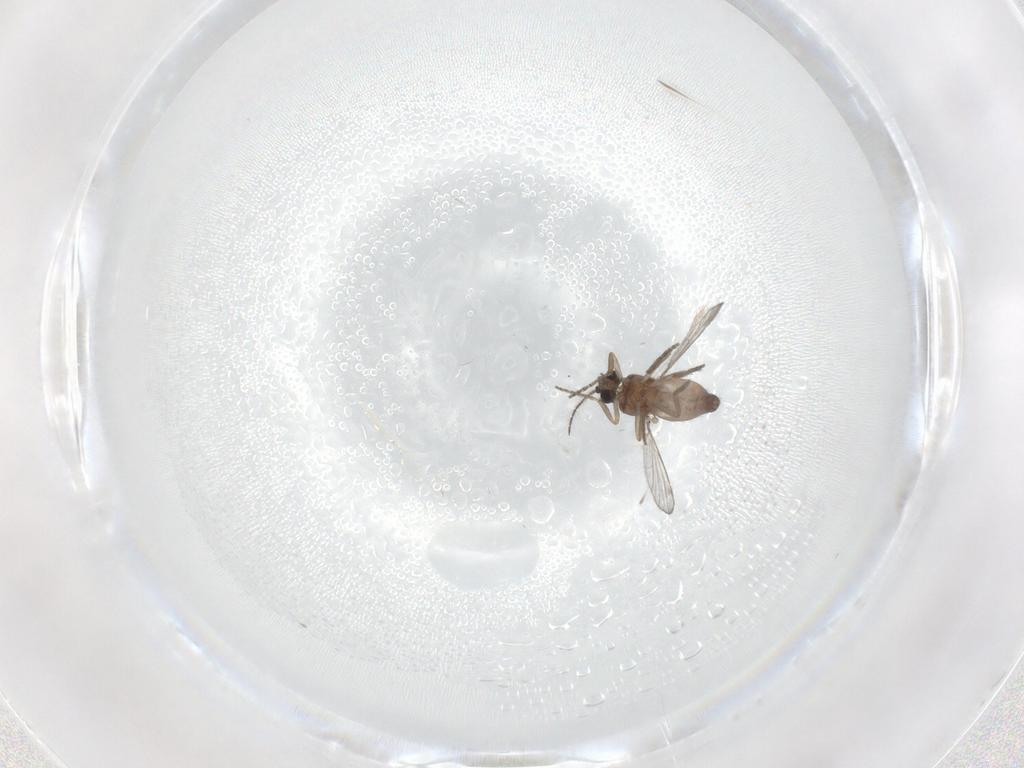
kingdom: Animalia
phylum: Arthropoda
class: Insecta
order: Diptera
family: Ceratopogonidae
